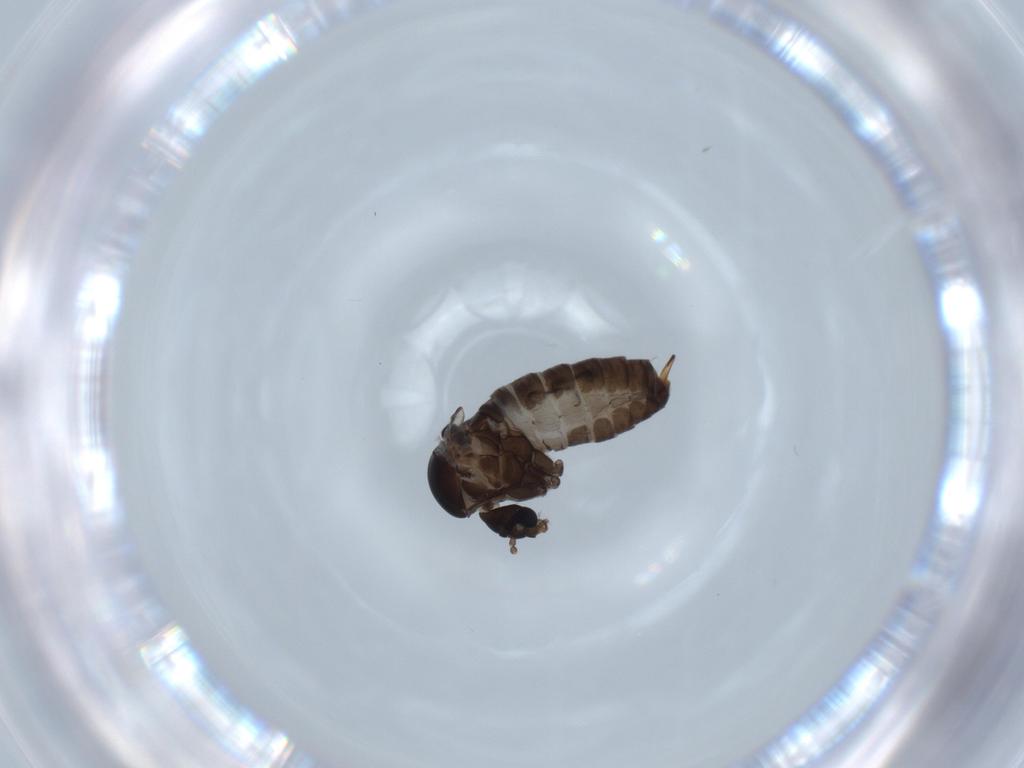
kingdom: Animalia
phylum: Arthropoda
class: Insecta
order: Diptera
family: Psychodidae
